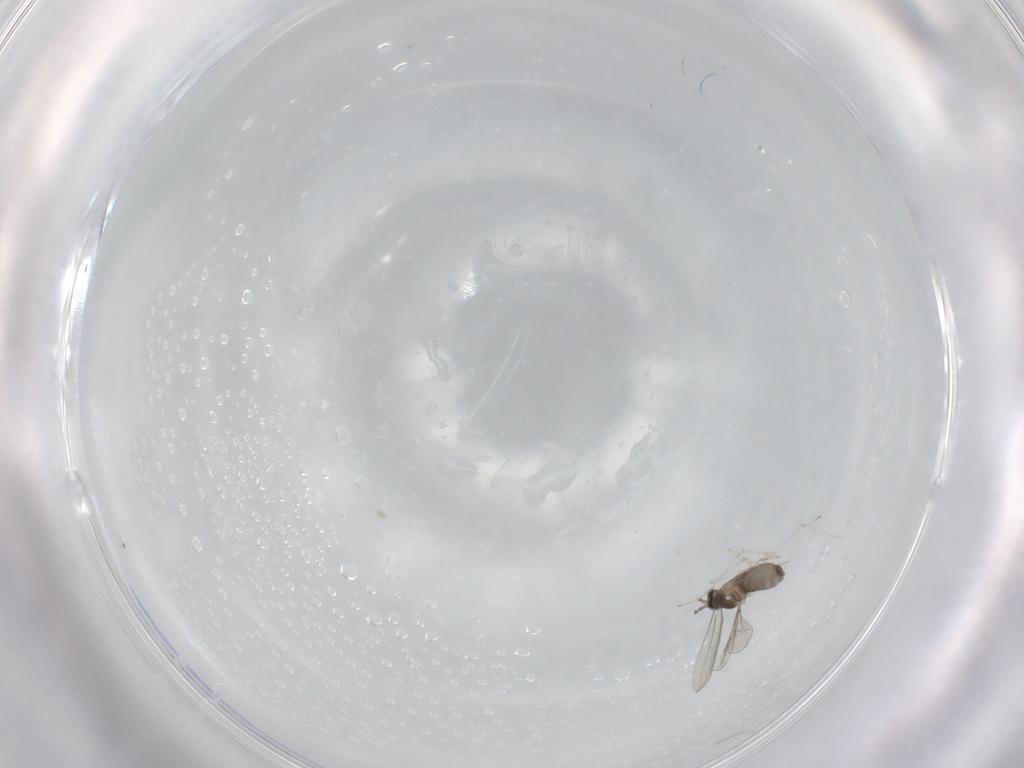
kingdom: Animalia
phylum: Arthropoda
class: Insecta
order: Diptera
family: Cecidomyiidae
